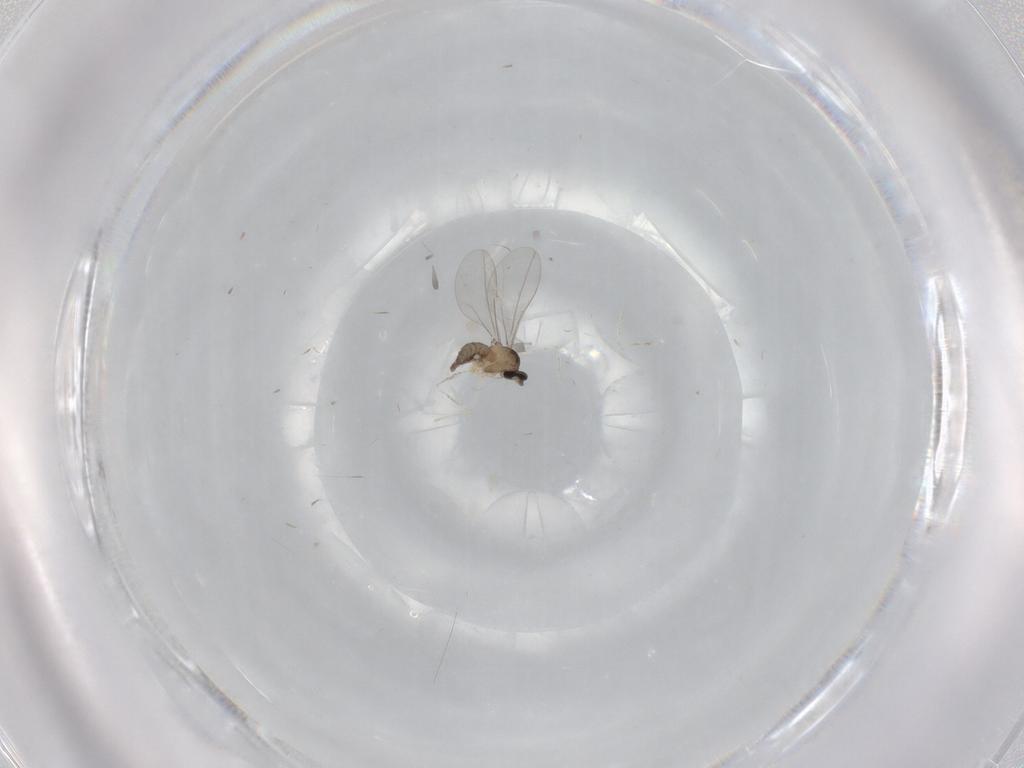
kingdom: Animalia
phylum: Arthropoda
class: Insecta
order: Diptera
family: Cecidomyiidae
